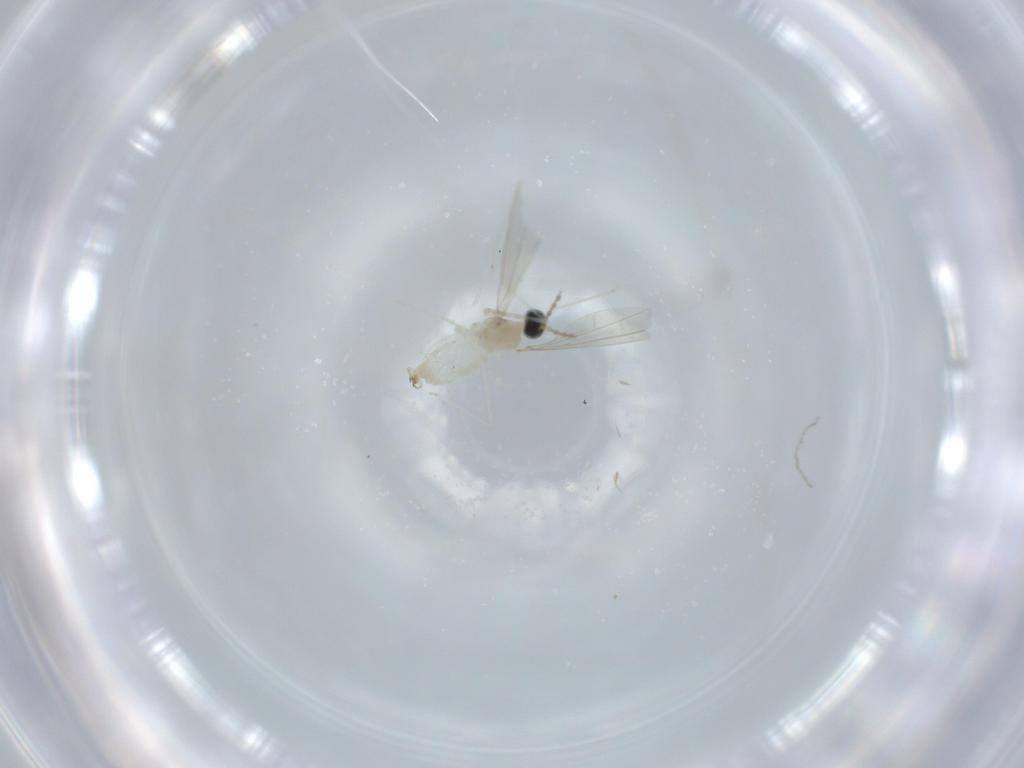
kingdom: Animalia
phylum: Arthropoda
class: Insecta
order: Diptera
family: Cecidomyiidae
